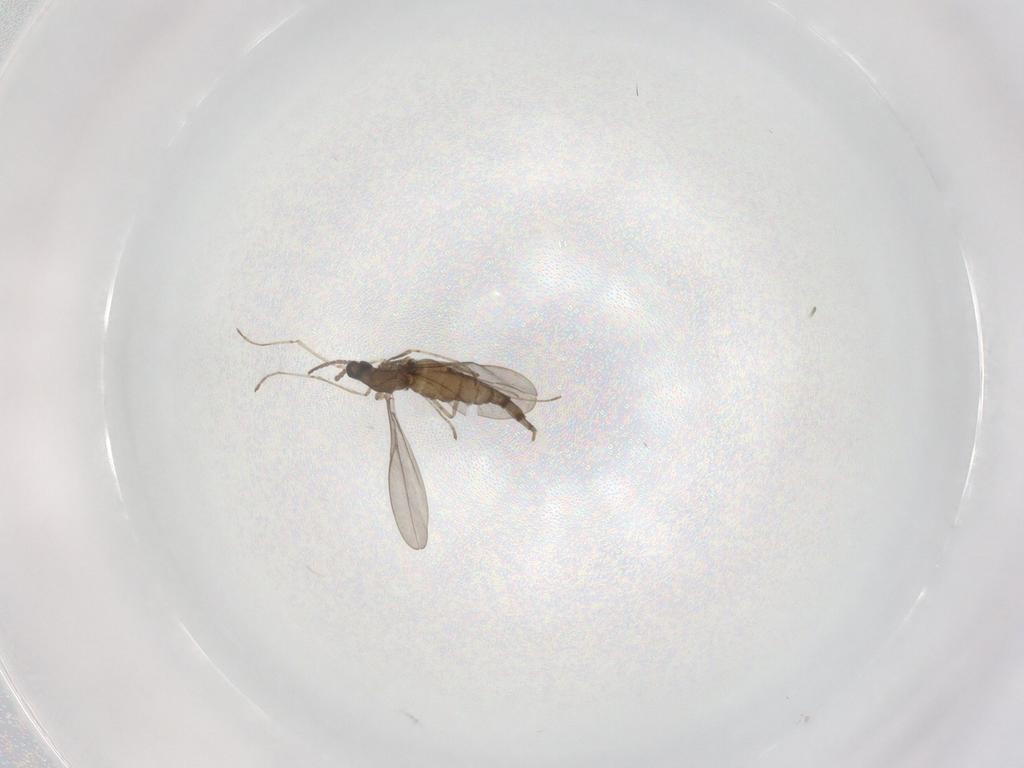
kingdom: Animalia
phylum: Arthropoda
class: Insecta
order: Diptera
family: Cecidomyiidae
